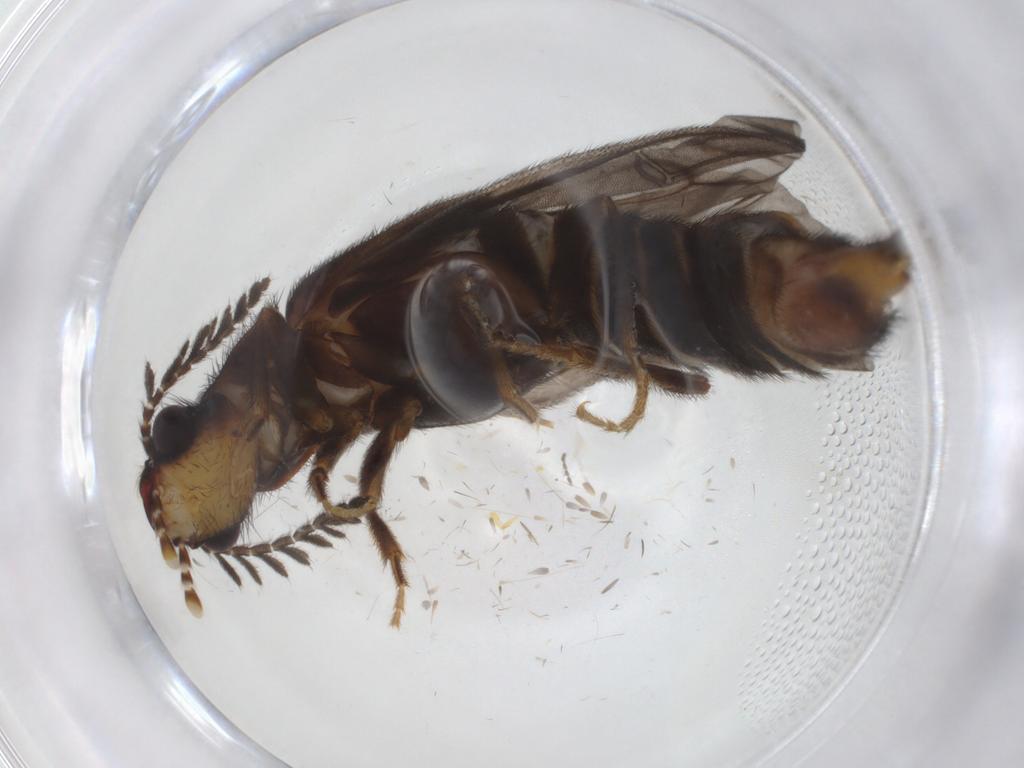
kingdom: Animalia
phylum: Arthropoda
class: Insecta
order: Coleoptera
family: Phengodidae
